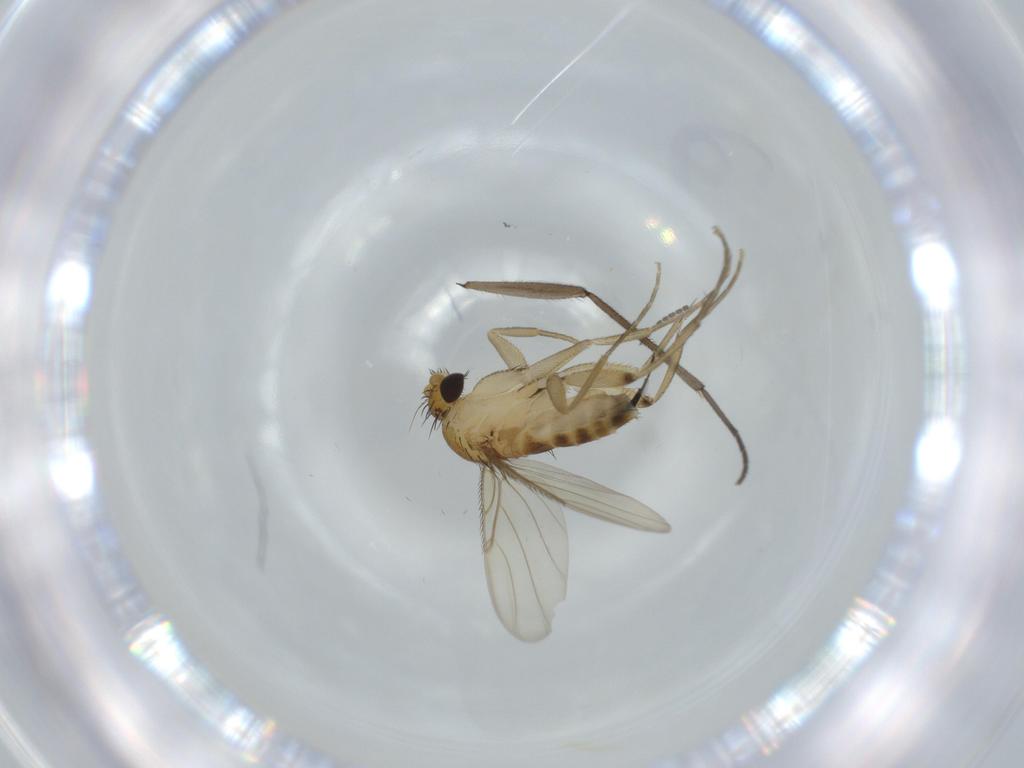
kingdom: Animalia
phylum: Arthropoda
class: Insecta
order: Diptera
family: Phoridae
